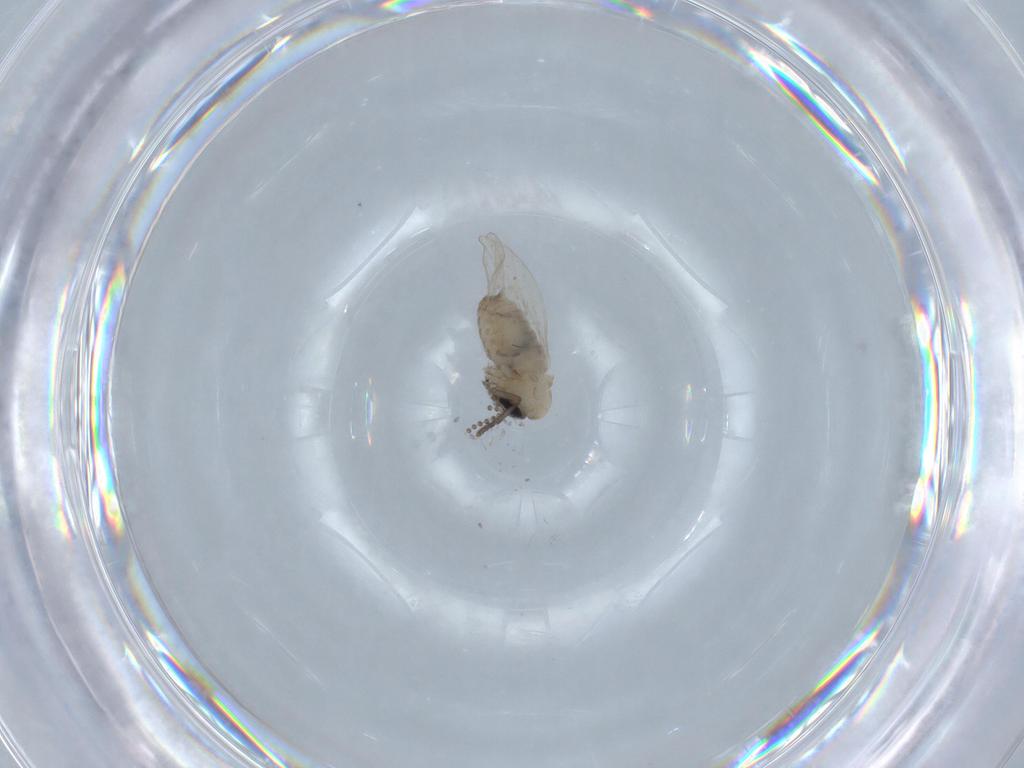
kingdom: Animalia
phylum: Arthropoda
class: Insecta
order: Diptera
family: Psychodidae
